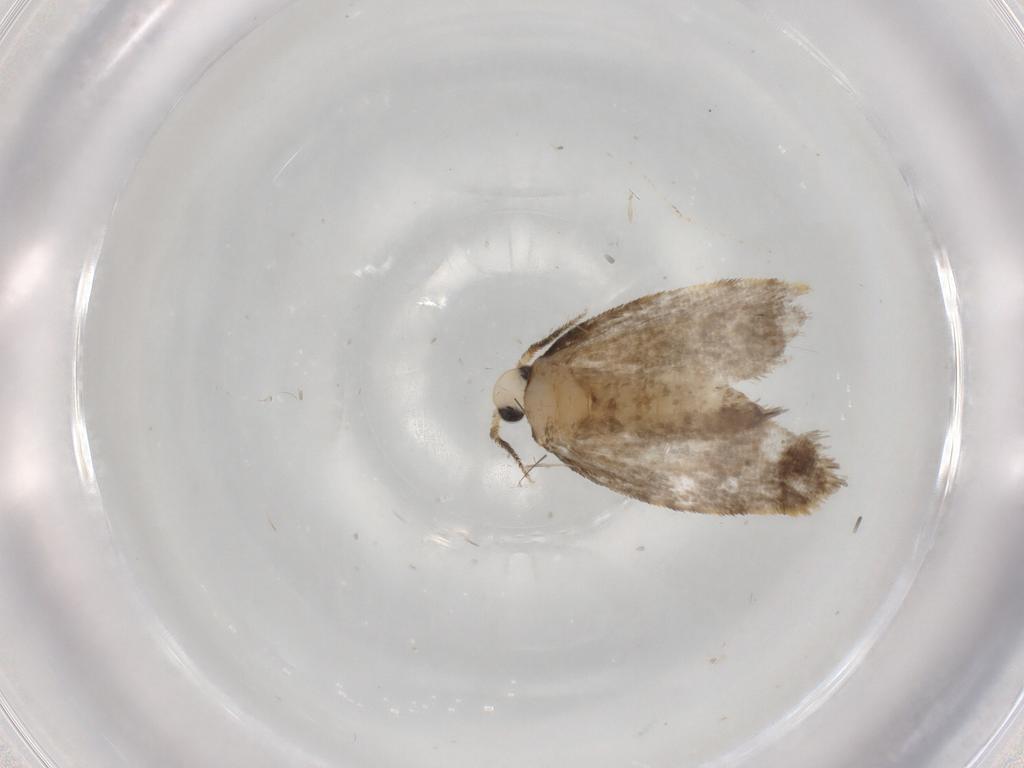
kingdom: Animalia
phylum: Arthropoda
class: Insecta
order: Lepidoptera
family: Psychidae
